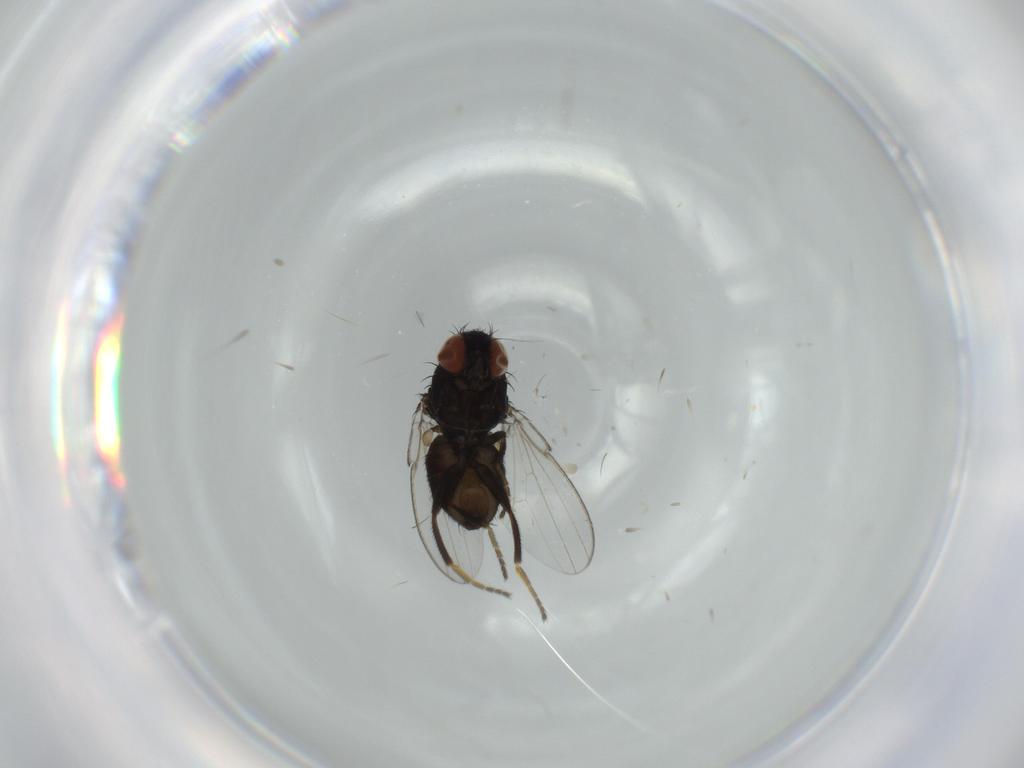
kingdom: Animalia
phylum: Arthropoda
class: Insecta
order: Diptera
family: Milichiidae
